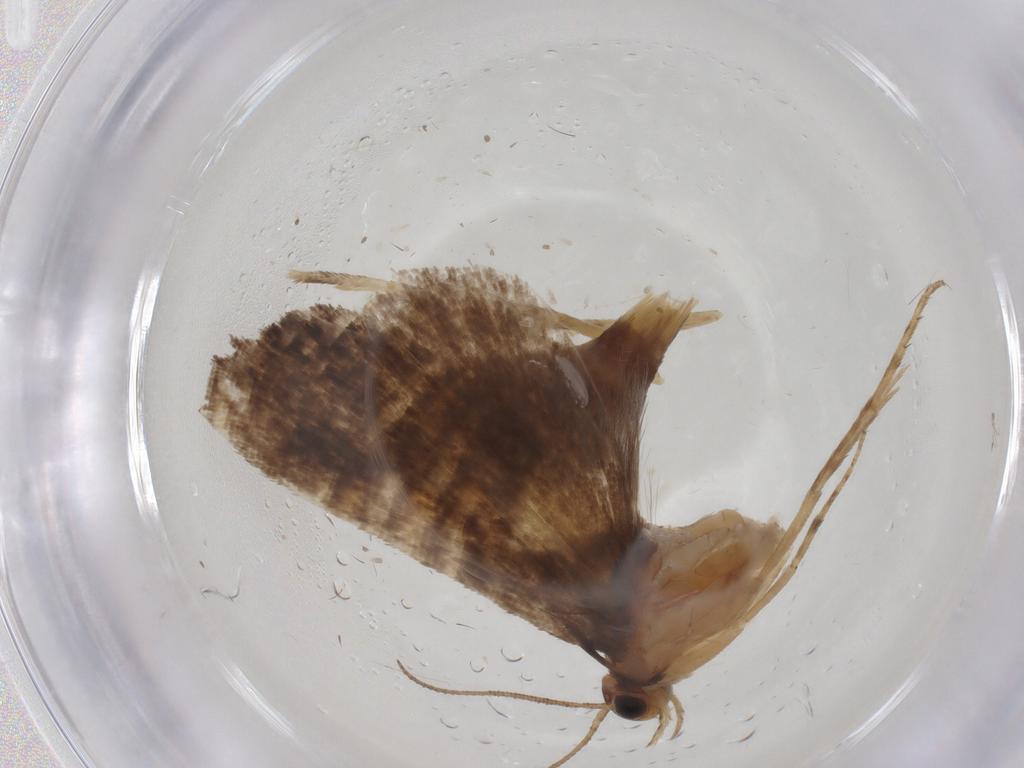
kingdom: Animalia
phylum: Arthropoda
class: Insecta
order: Lepidoptera
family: Glyphipterigidae
